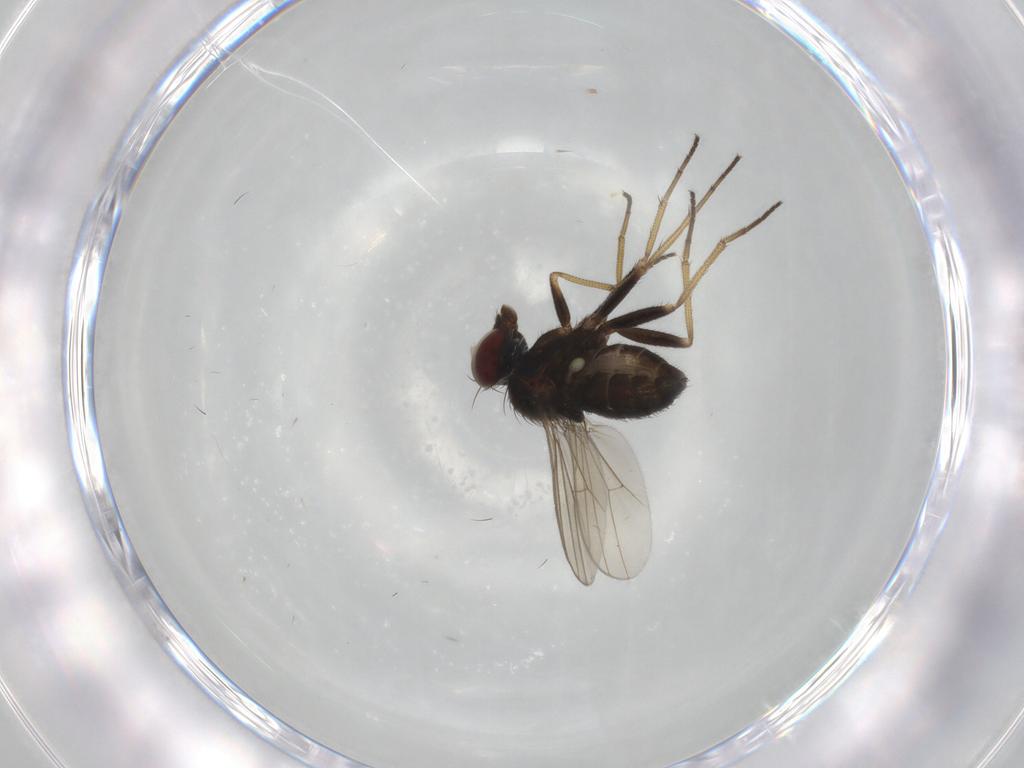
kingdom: Animalia
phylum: Arthropoda
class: Insecta
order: Diptera
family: Dolichopodidae
